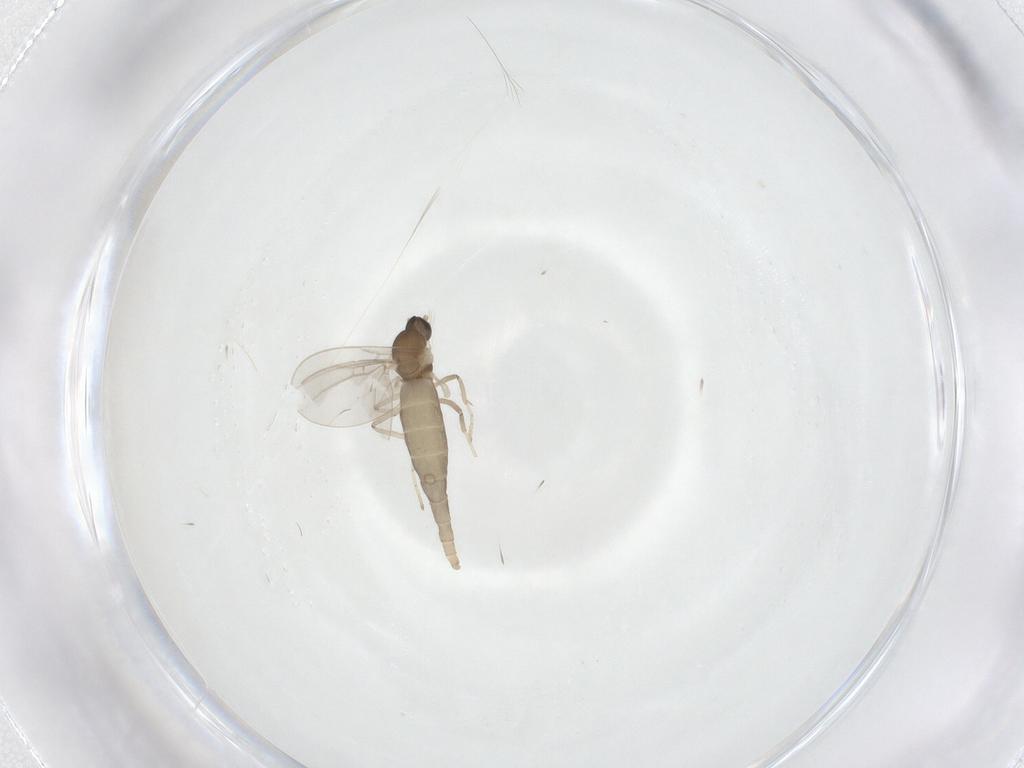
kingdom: Animalia
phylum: Arthropoda
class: Insecta
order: Diptera
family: Cecidomyiidae
